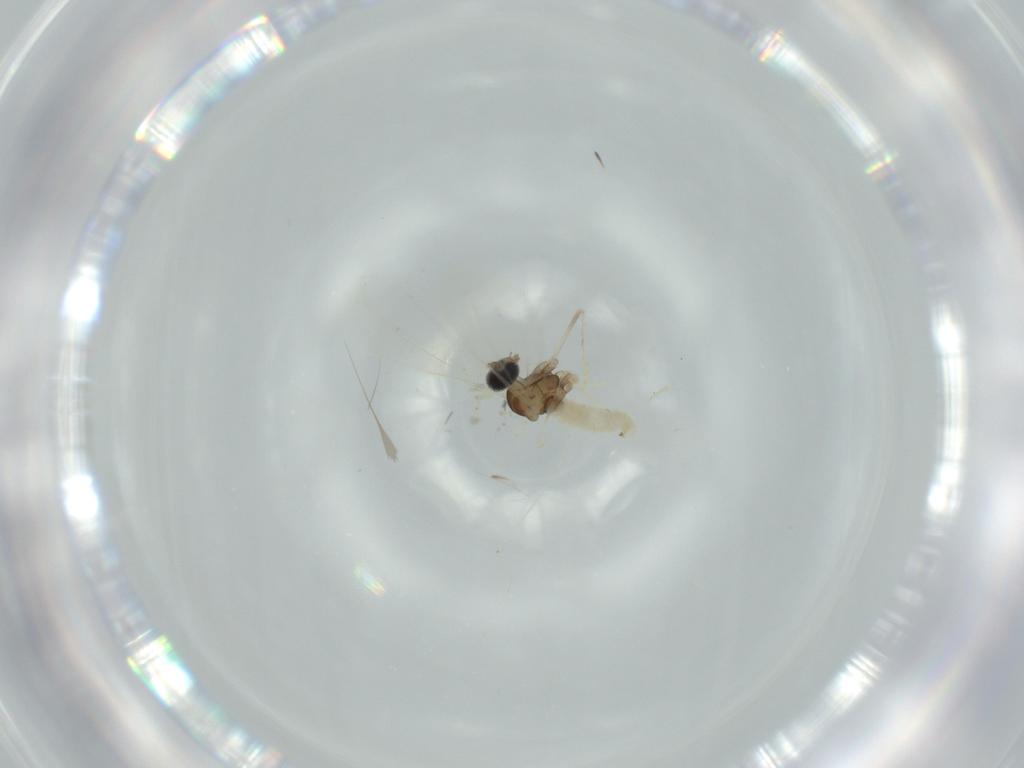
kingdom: Animalia
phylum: Arthropoda
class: Insecta
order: Diptera
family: Cecidomyiidae
